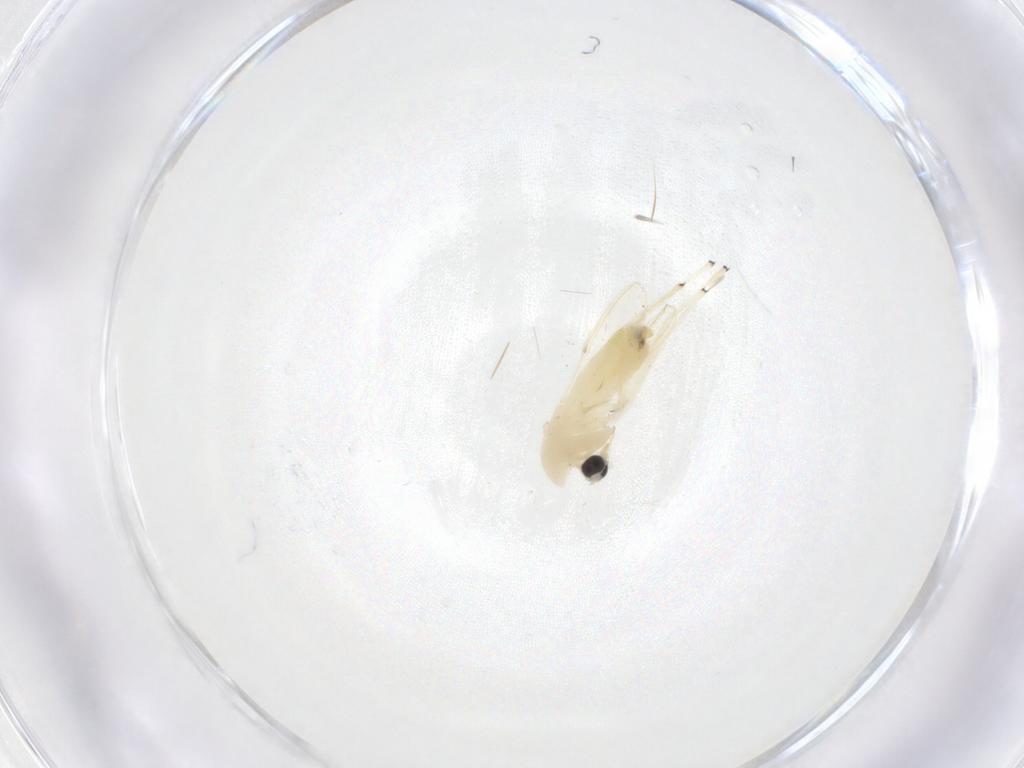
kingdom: Animalia
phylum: Arthropoda
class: Insecta
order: Diptera
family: Chironomidae
